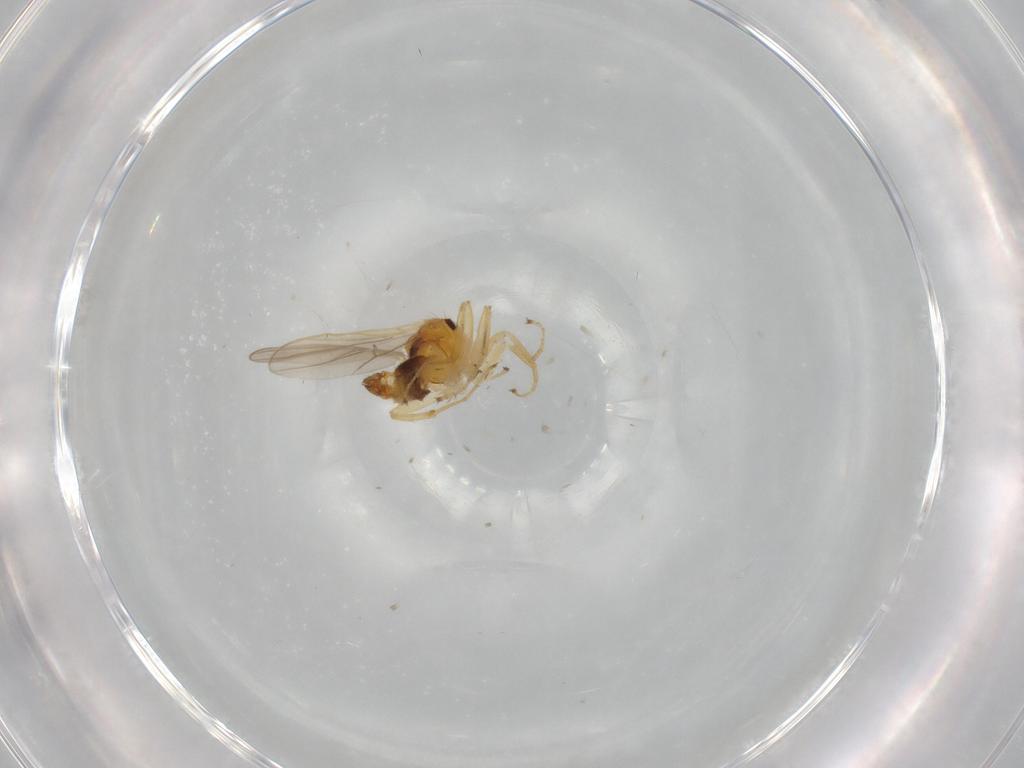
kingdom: Animalia
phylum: Arthropoda
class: Insecta
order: Diptera
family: Hybotidae
